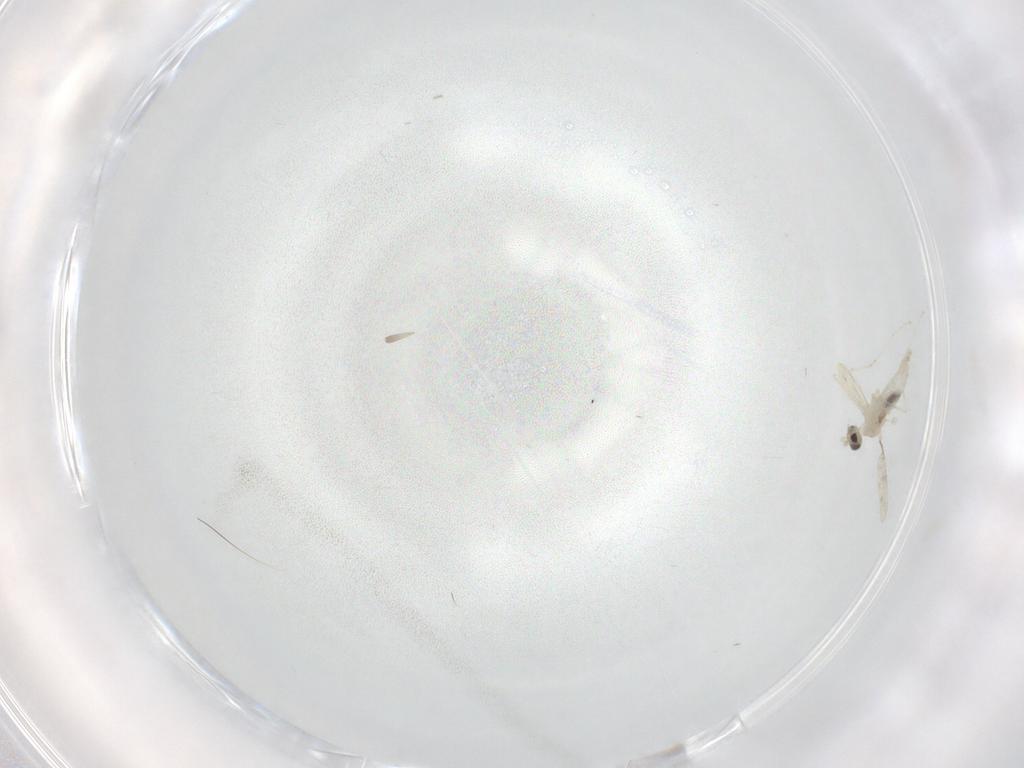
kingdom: Animalia
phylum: Arthropoda
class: Insecta
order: Diptera
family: Cecidomyiidae
